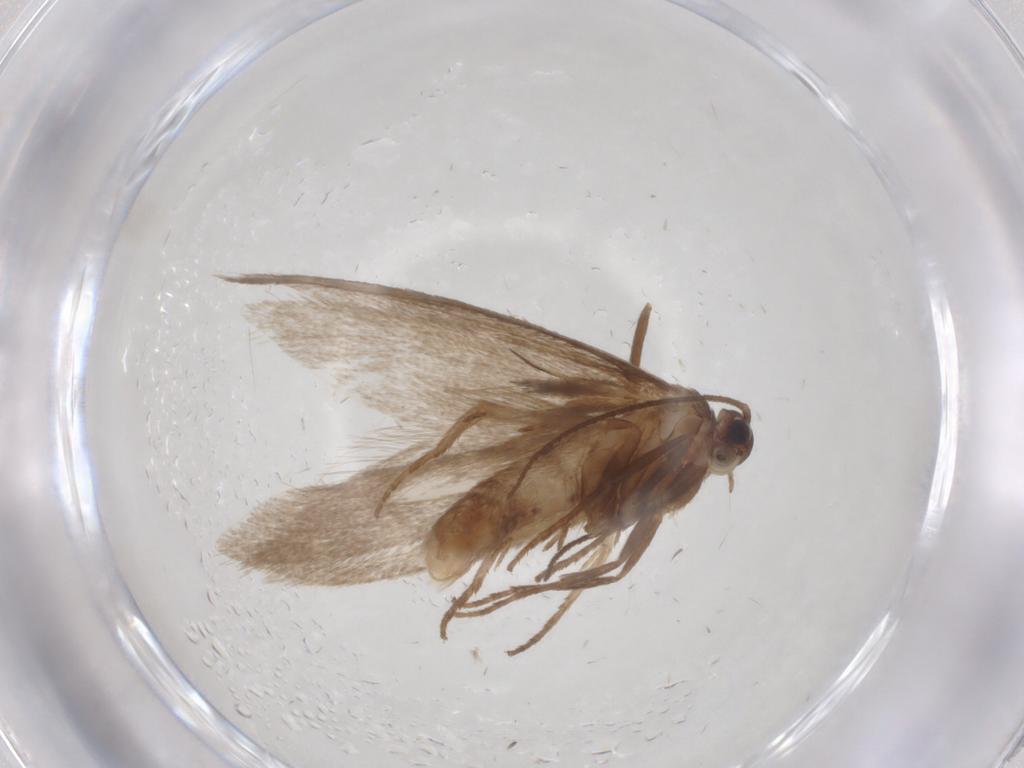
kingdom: Animalia
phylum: Arthropoda
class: Insecta
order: Lepidoptera
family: Limacodidae
